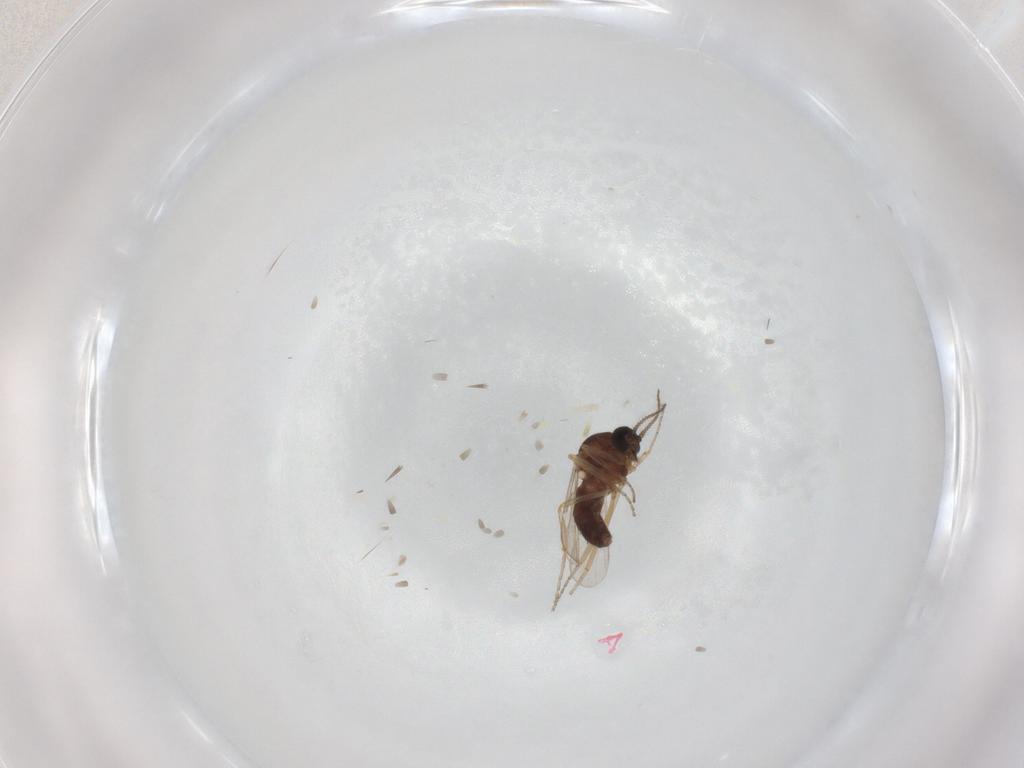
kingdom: Animalia
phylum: Arthropoda
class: Insecta
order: Diptera
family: Ceratopogonidae
